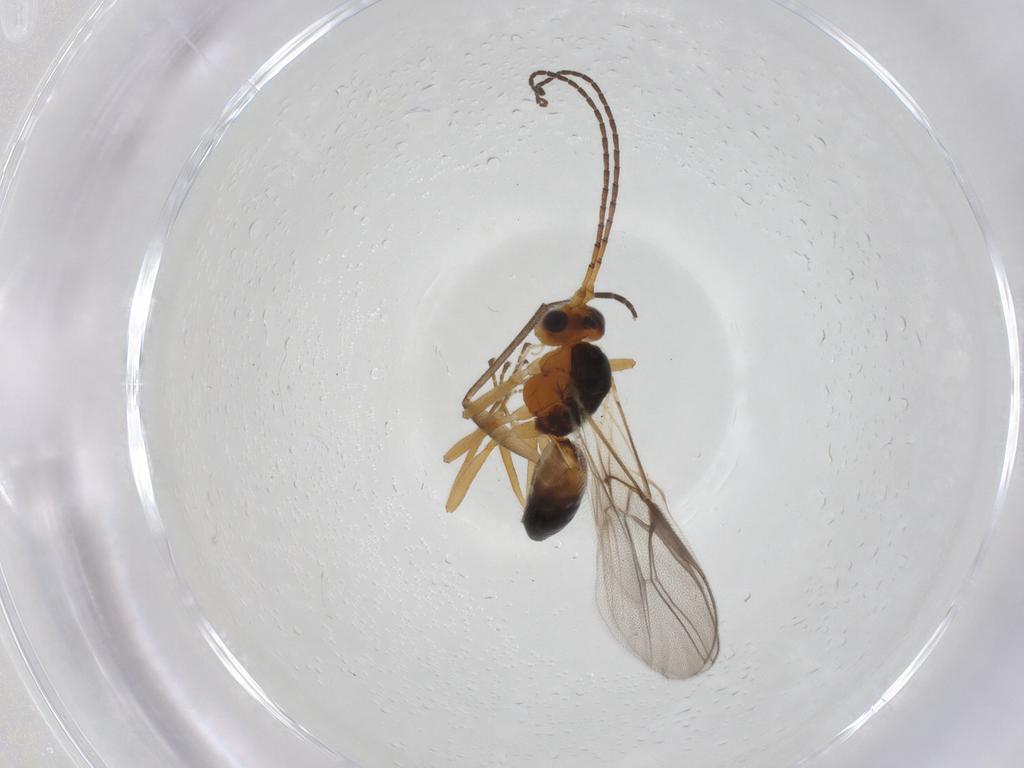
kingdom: Animalia
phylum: Arthropoda
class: Insecta
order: Hymenoptera
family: Braconidae
